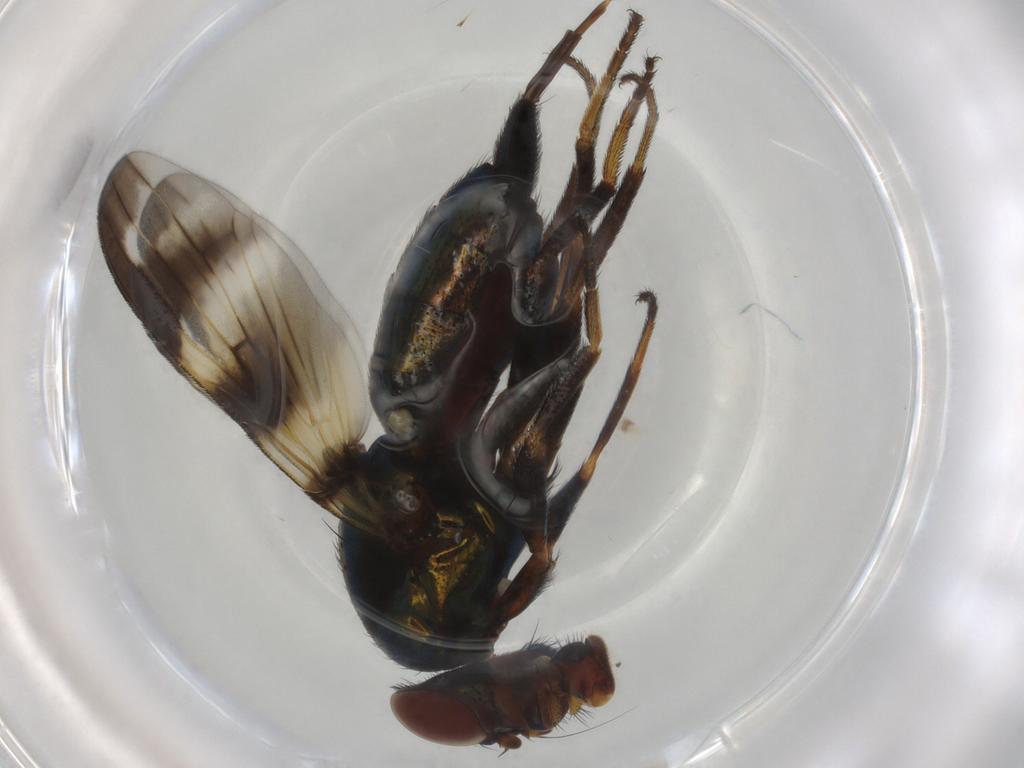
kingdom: Animalia
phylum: Arthropoda
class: Insecta
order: Diptera
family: Ulidiidae
